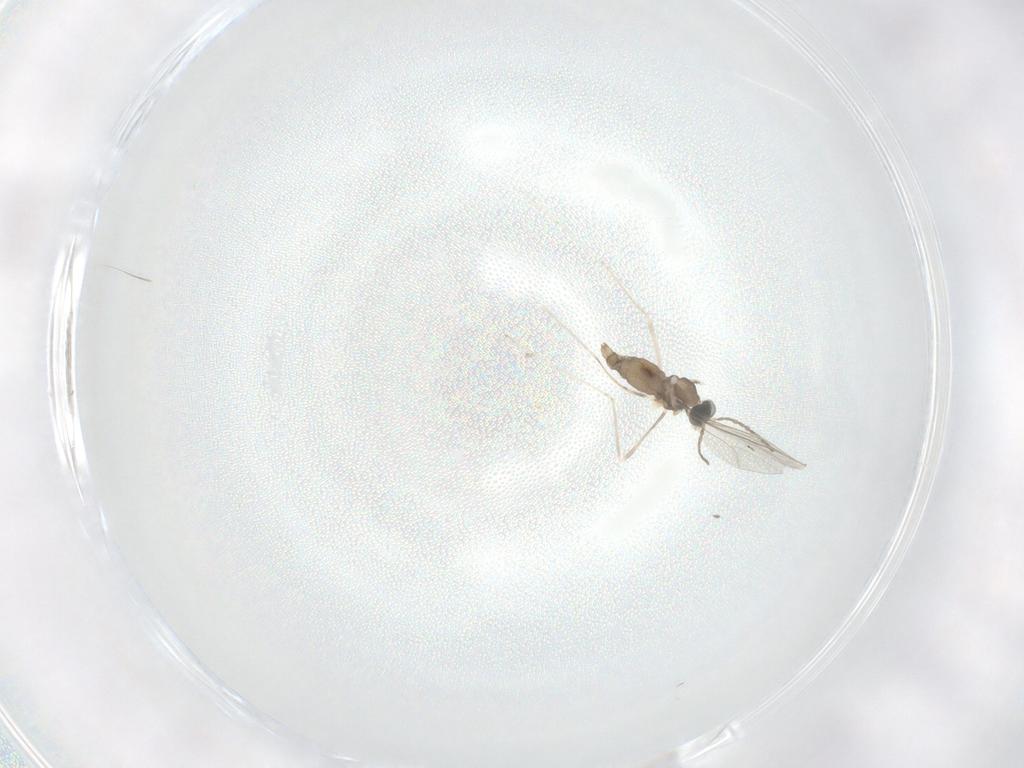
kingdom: Animalia
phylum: Arthropoda
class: Insecta
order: Diptera
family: Cecidomyiidae
